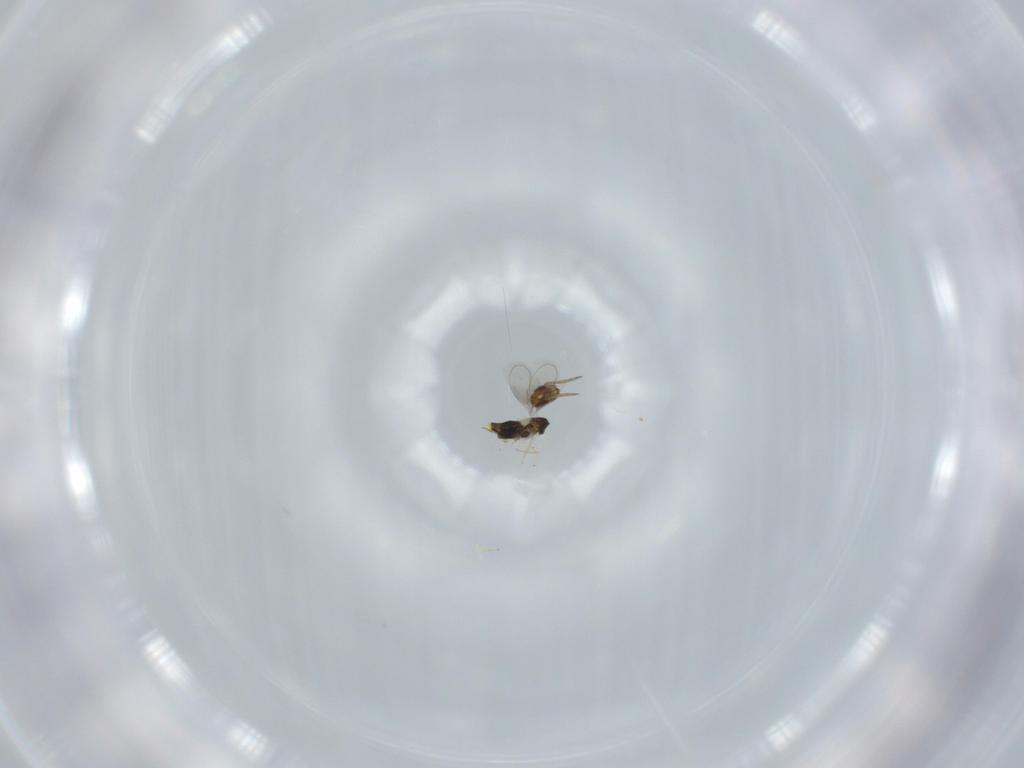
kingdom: Animalia
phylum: Arthropoda
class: Insecta
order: Hymenoptera
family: Aphelinidae
